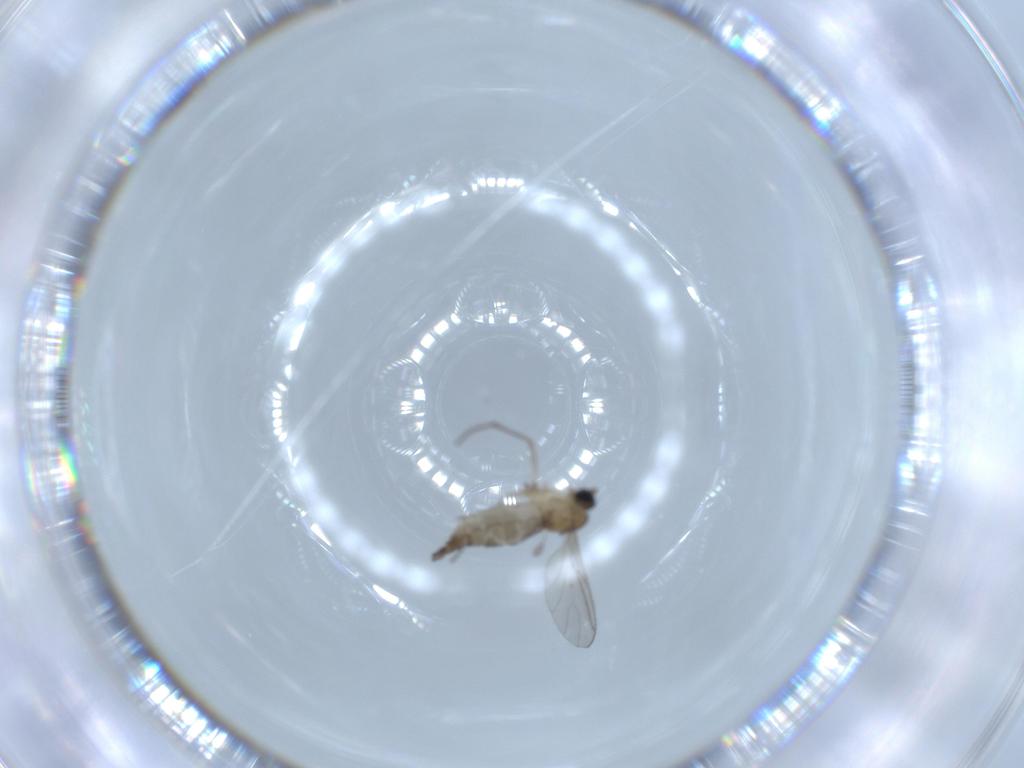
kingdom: Animalia
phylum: Arthropoda
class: Insecta
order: Diptera
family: Sciaridae
